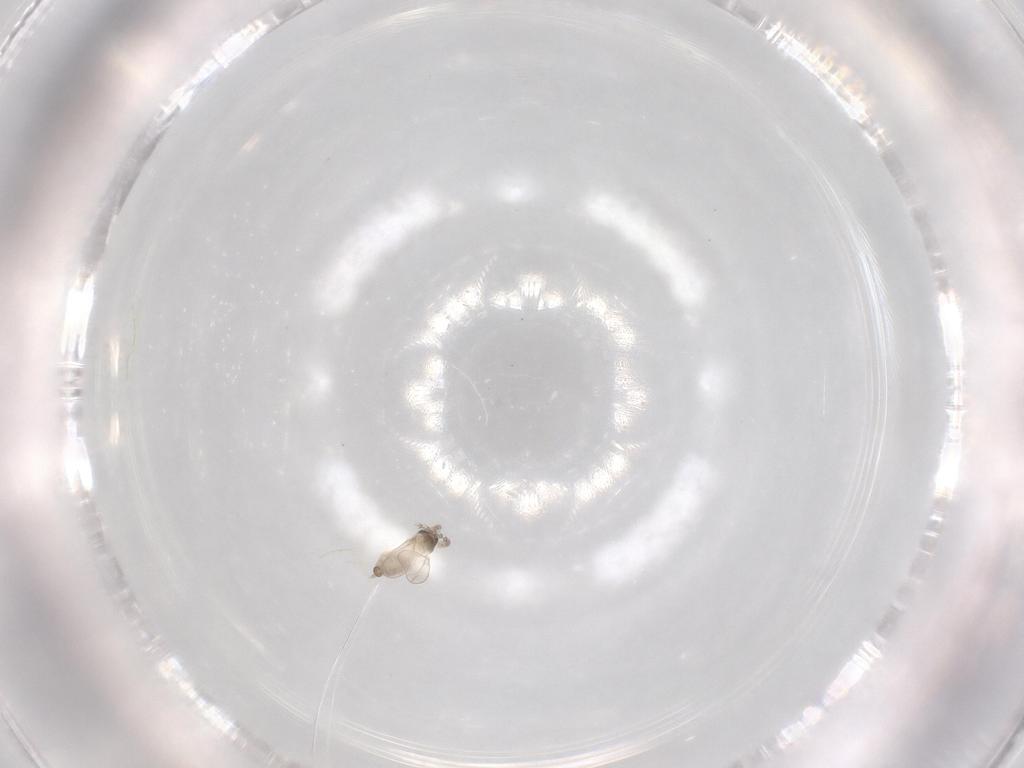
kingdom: Animalia
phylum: Arthropoda
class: Insecta
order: Diptera
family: Cecidomyiidae
